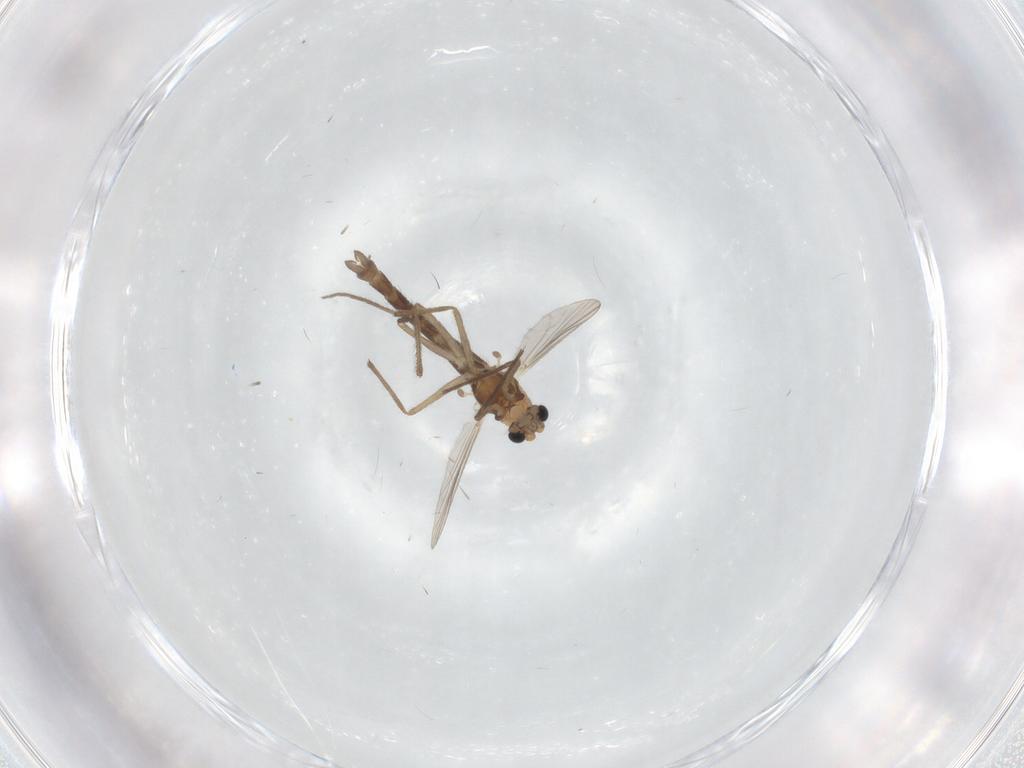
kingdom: Animalia
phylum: Arthropoda
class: Insecta
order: Diptera
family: Chironomidae
